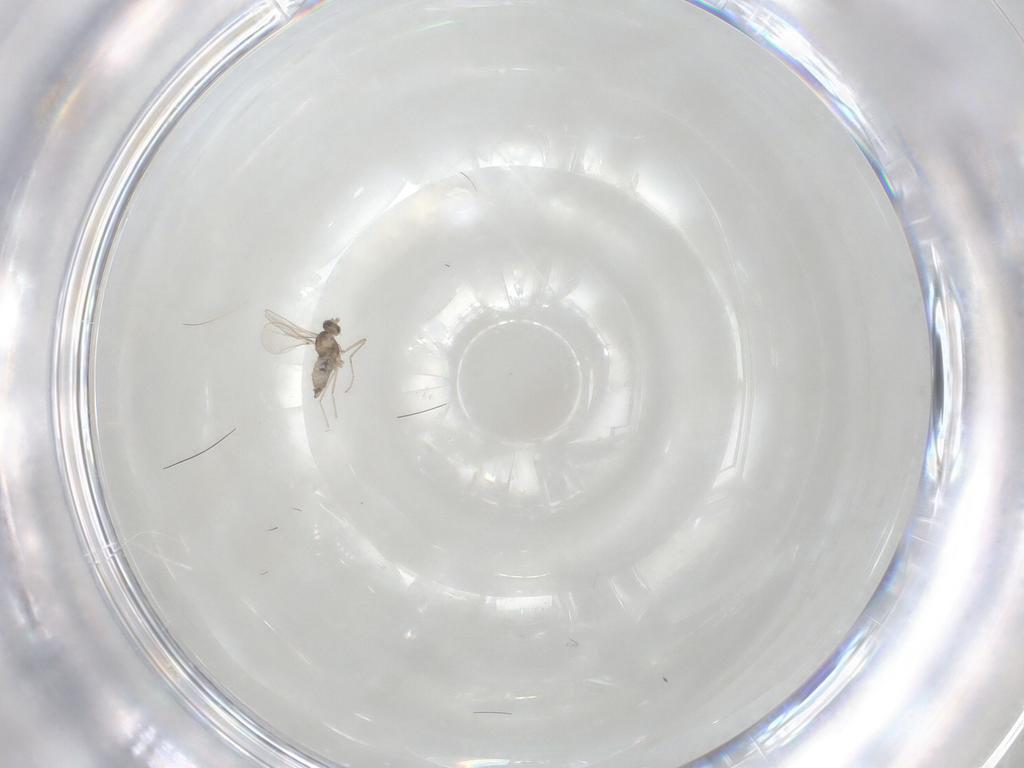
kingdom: Animalia
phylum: Arthropoda
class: Insecta
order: Diptera
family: Cecidomyiidae
